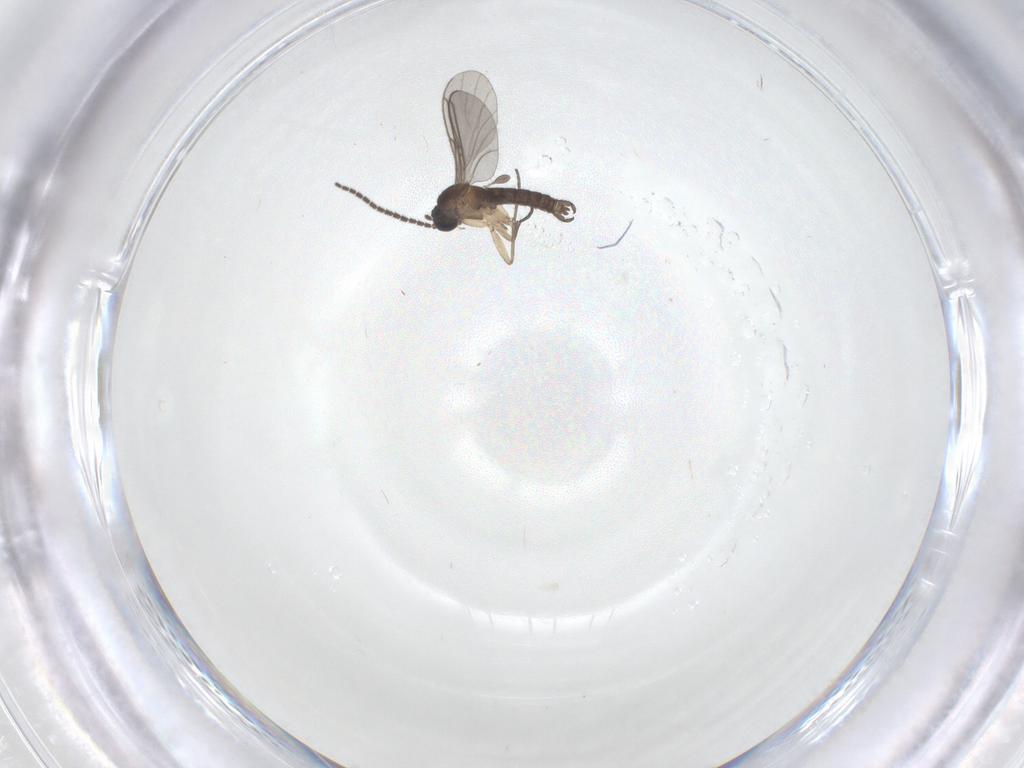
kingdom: Animalia
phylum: Arthropoda
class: Insecta
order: Diptera
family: Sciaridae
